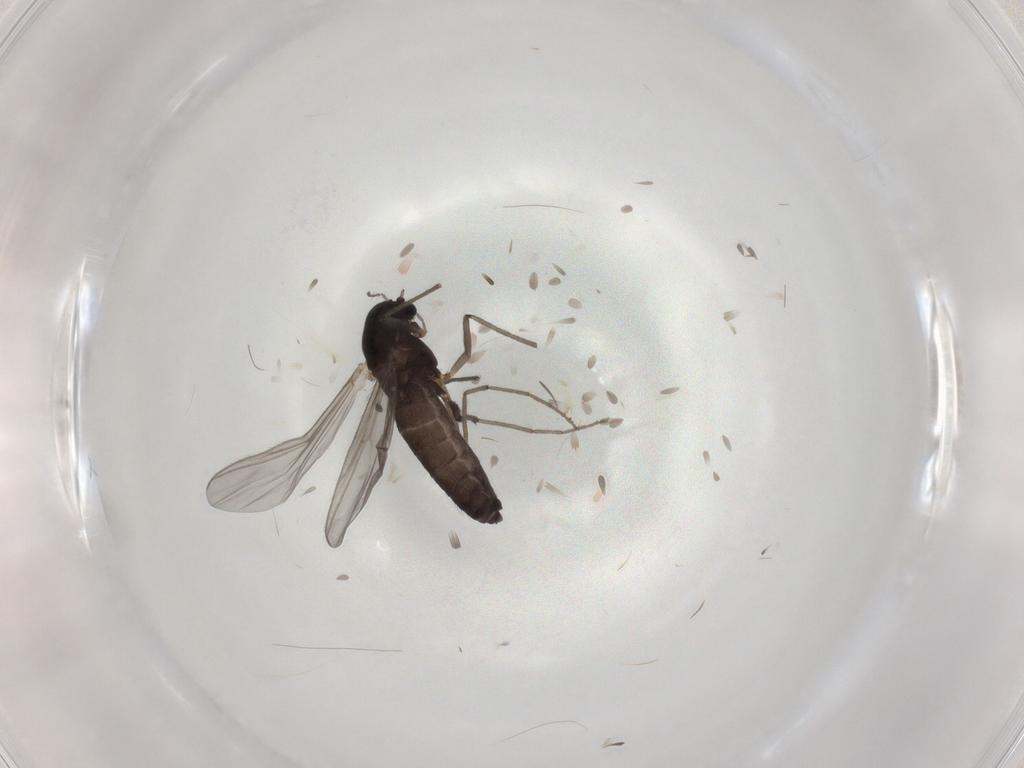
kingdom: Animalia
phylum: Arthropoda
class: Insecta
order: Diptera
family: Chironomidae
